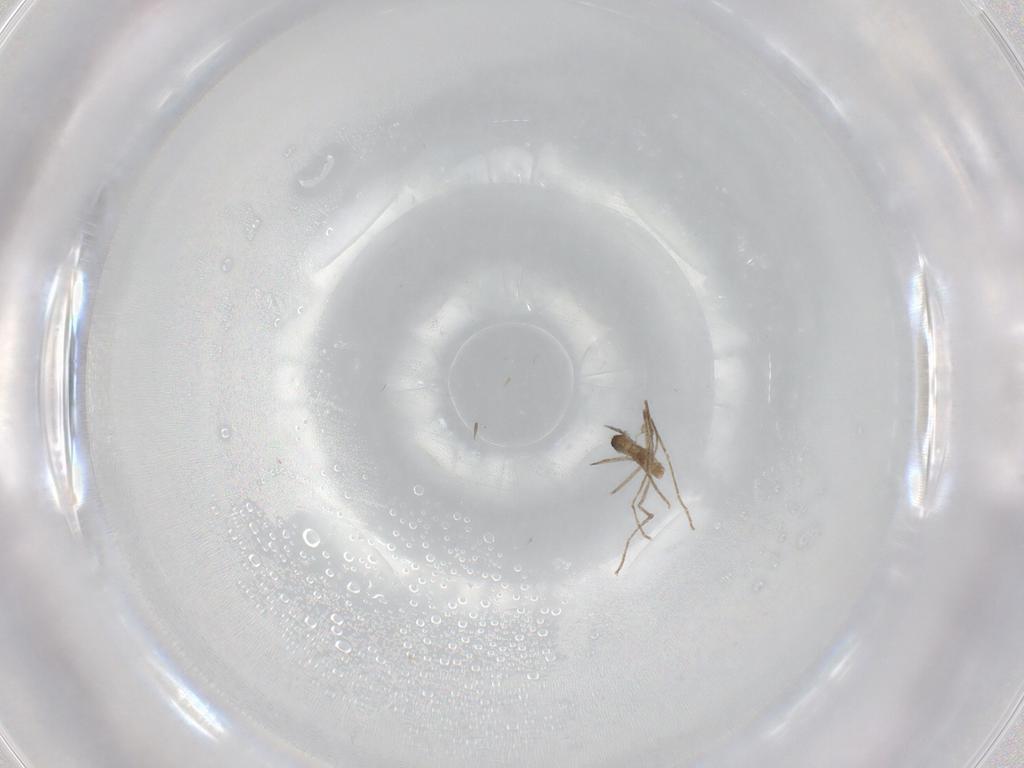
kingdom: Animalia
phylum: Arthropoda
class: Insecta
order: Diptera
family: Cecidomyiidae
